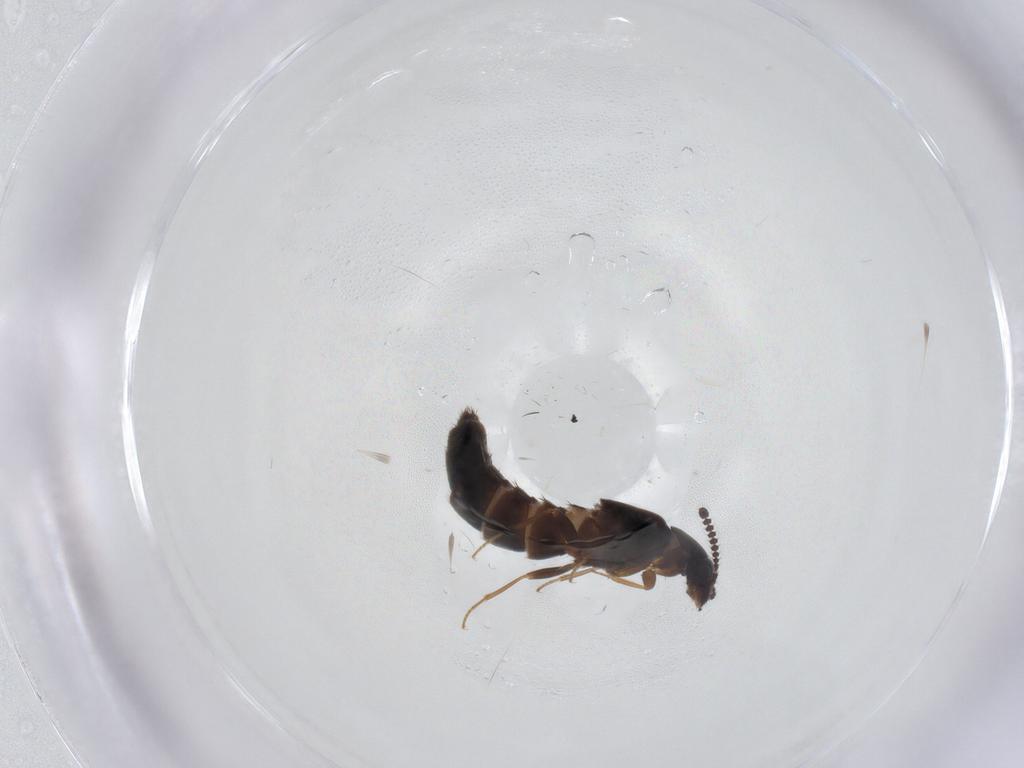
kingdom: Animalia
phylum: Arthropoda
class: Insecta
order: Coleoptera
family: Staphylinidae
